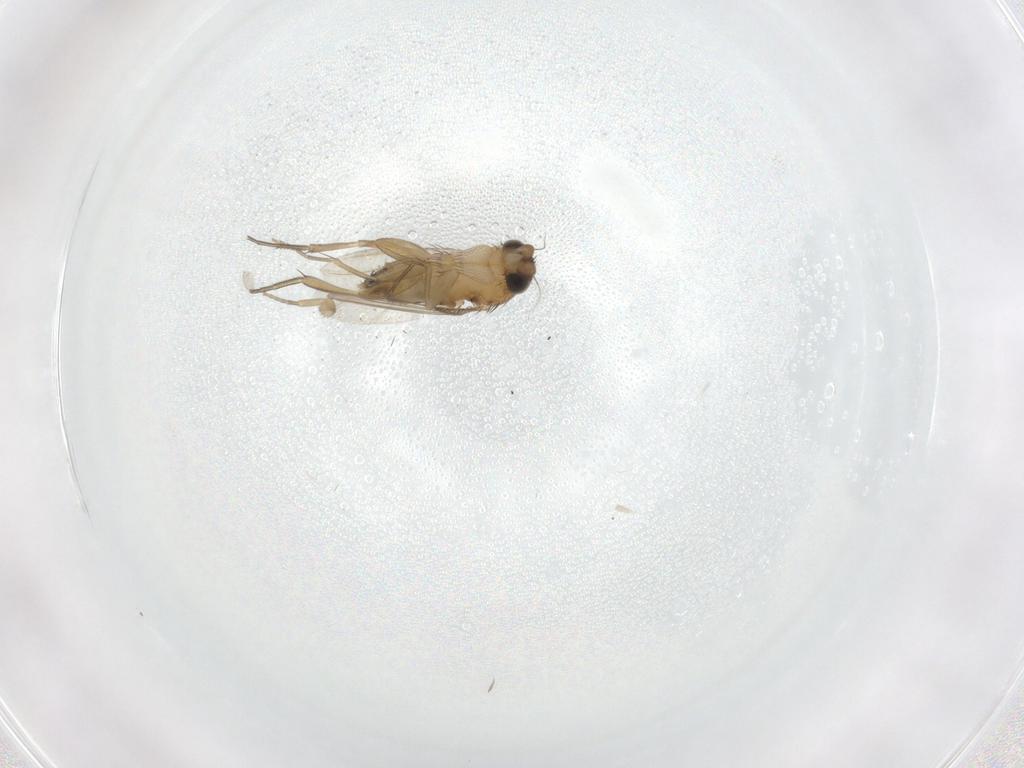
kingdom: Animalia
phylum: Arthropoda
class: Insecta
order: Diptera
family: Phoridae
